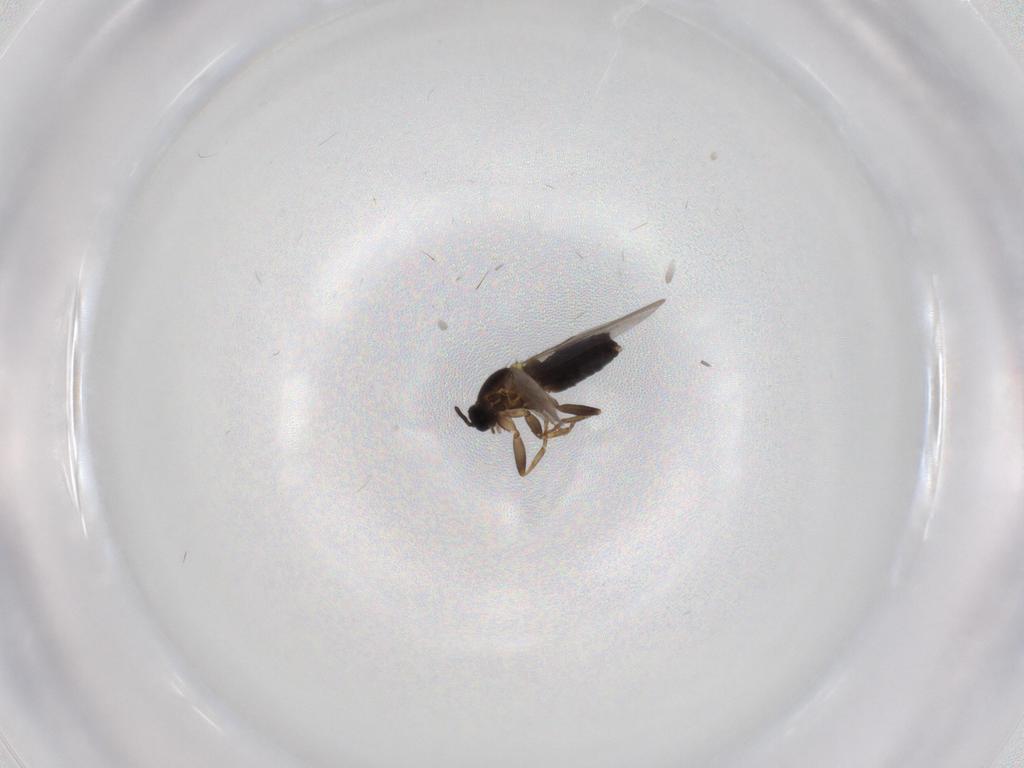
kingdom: Animalia
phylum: Arthropoda
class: Insecta
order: Diptera
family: Scatopsidae
